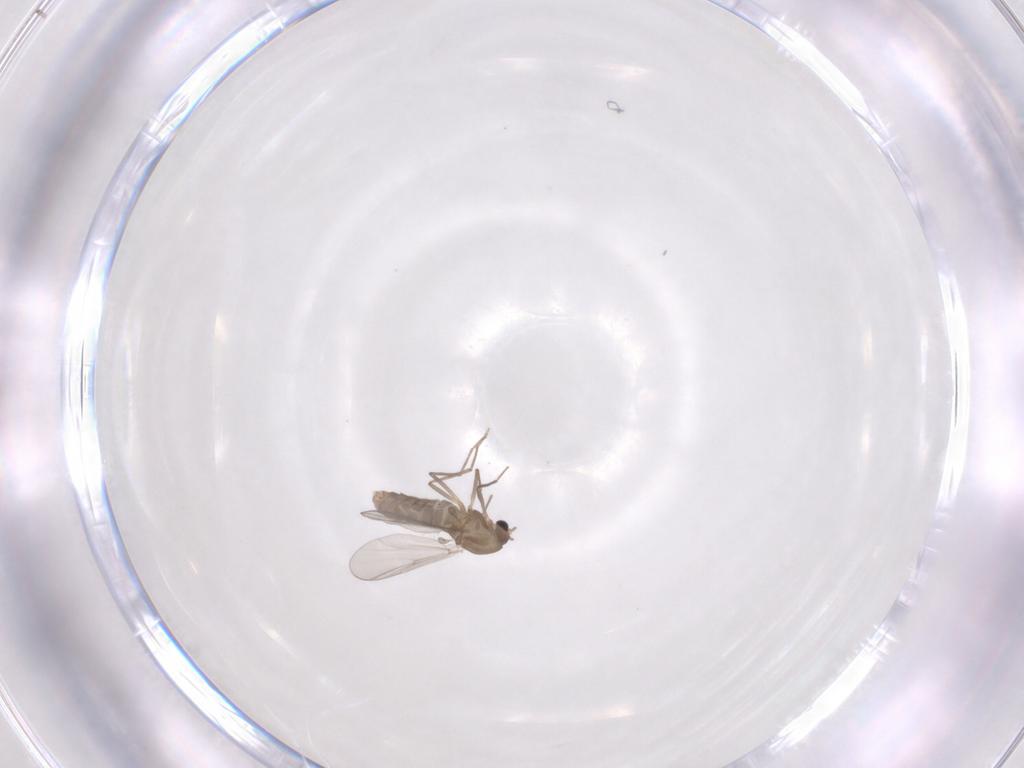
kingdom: Animalia
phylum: Arthropoda
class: Insecta
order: Diptera
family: Chironomidae
